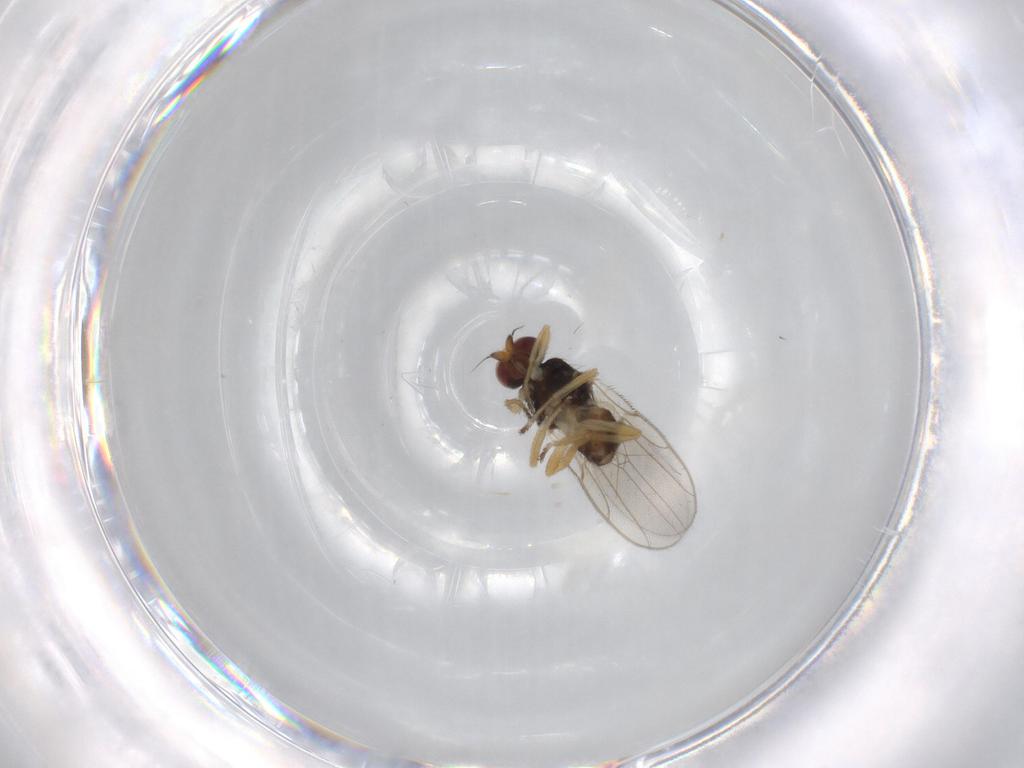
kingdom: Animalia
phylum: Arthropoda
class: Insecta
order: Diptera
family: Chloropidae
